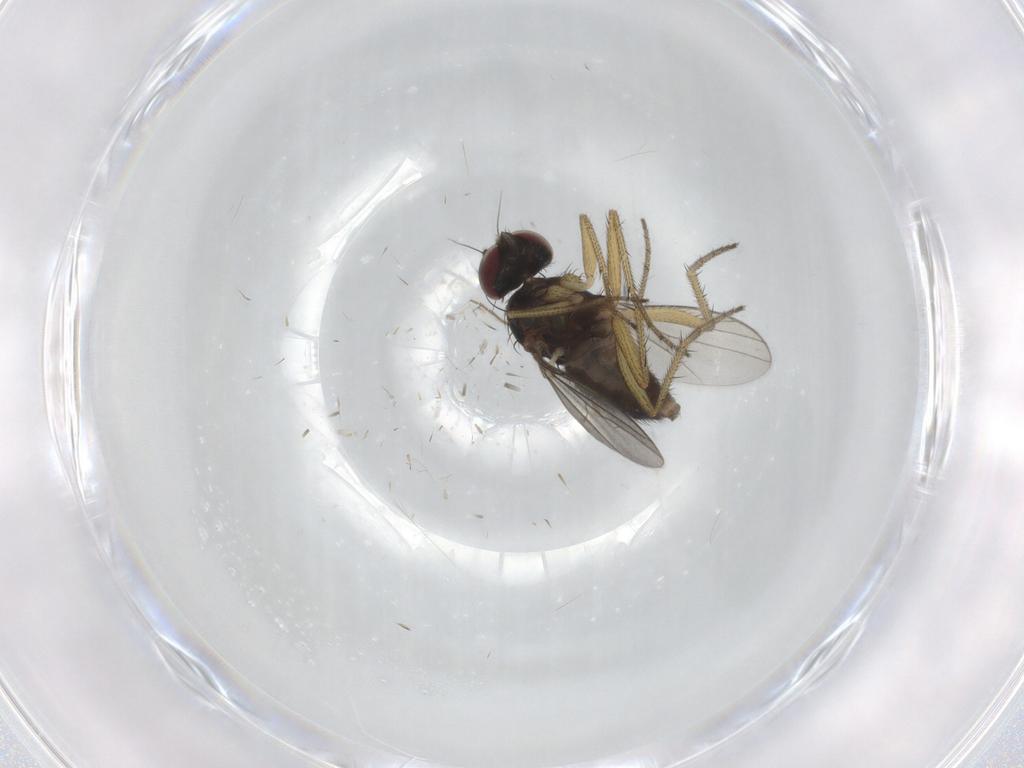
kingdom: Animalia
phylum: Arthropoda
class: Insecta
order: Diptera
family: Chironomidae
